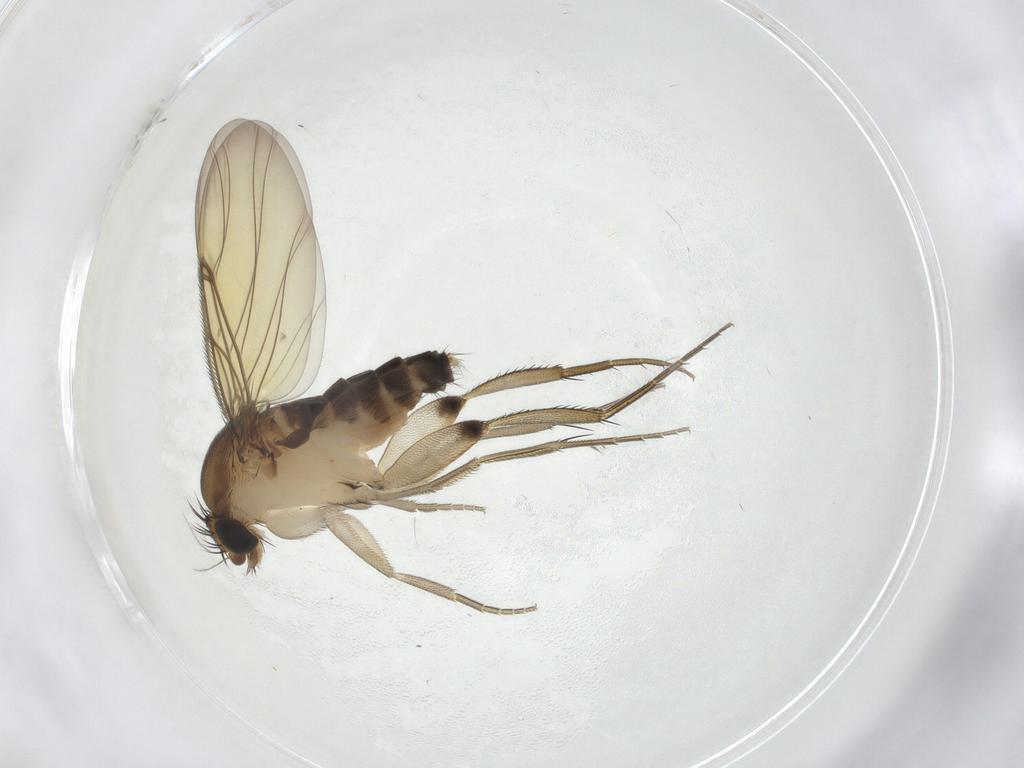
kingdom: Animalia
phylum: Arthropoda
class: Insecta
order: Diptera
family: Phoridae
